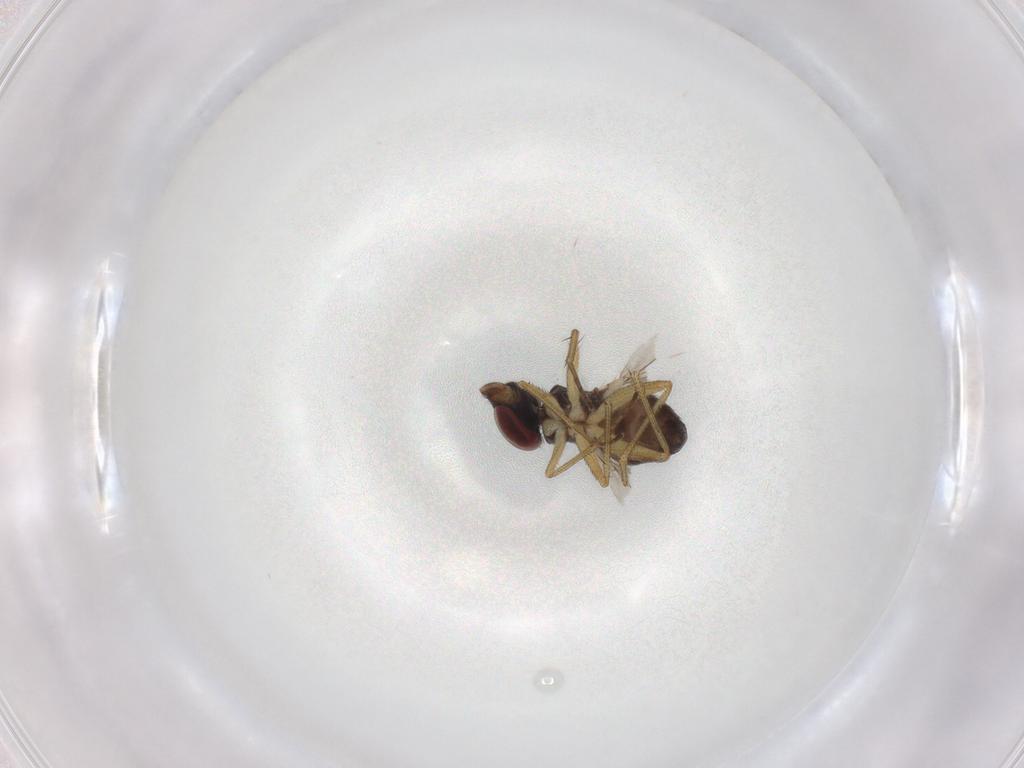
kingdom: Animalia
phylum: Arthropoda
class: Insecta
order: Diptera
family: Dolichopodidae
